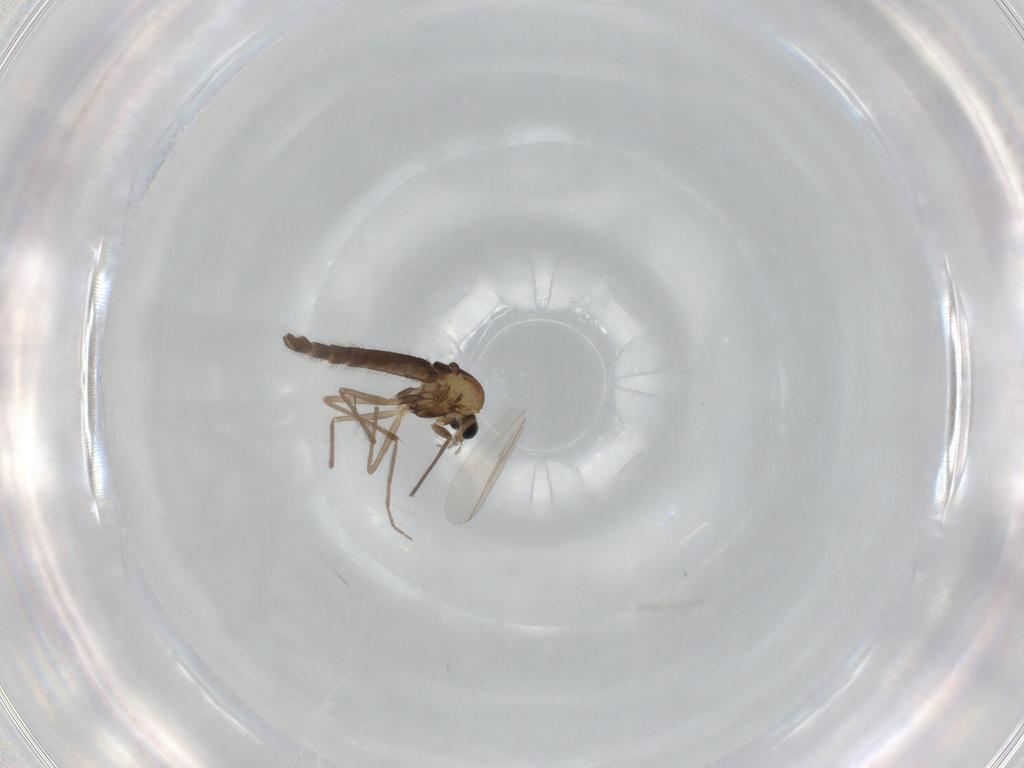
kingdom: Animalia
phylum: Arthropoda
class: Insecta
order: Diptera
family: Chironomidae
